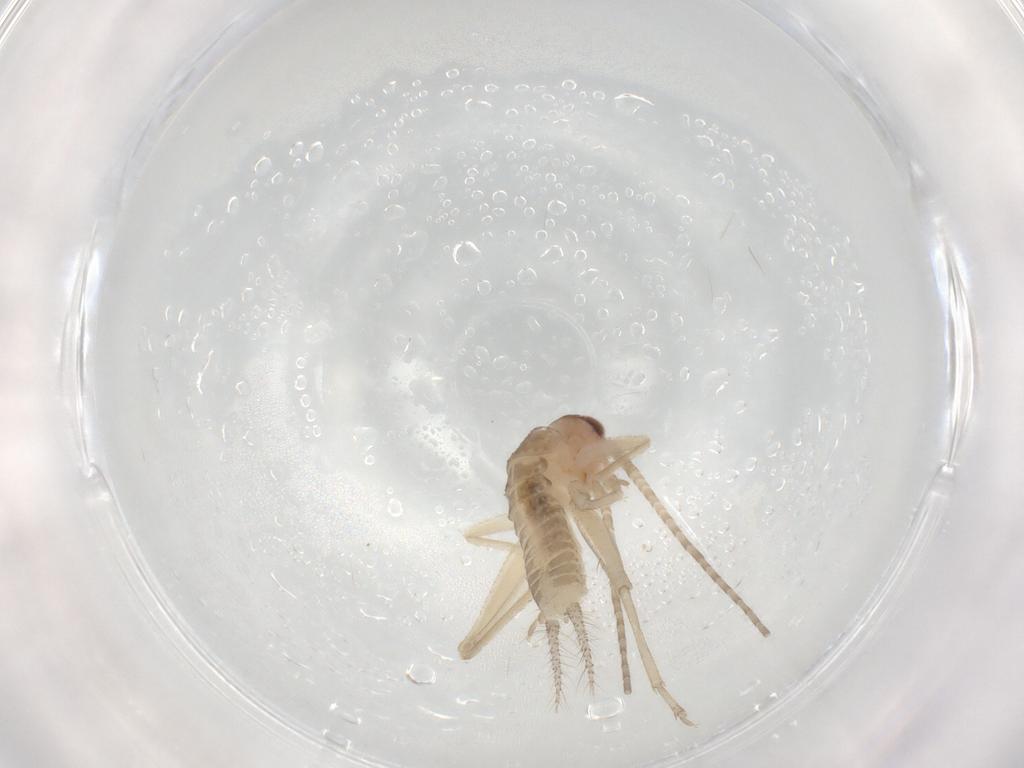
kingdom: Animalia
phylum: Arthropoda
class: Insecta
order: Orthoptera
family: Gryllidae
